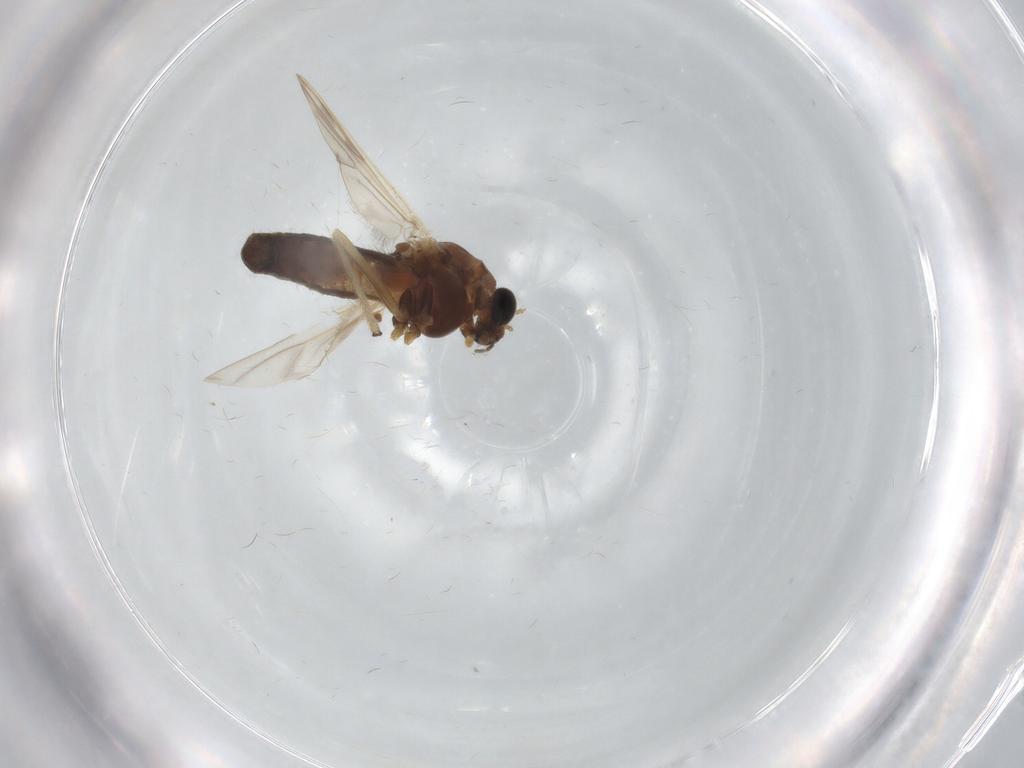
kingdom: Animalia
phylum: Arthropoda
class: Insecta
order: Diptera
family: Chironomidae
